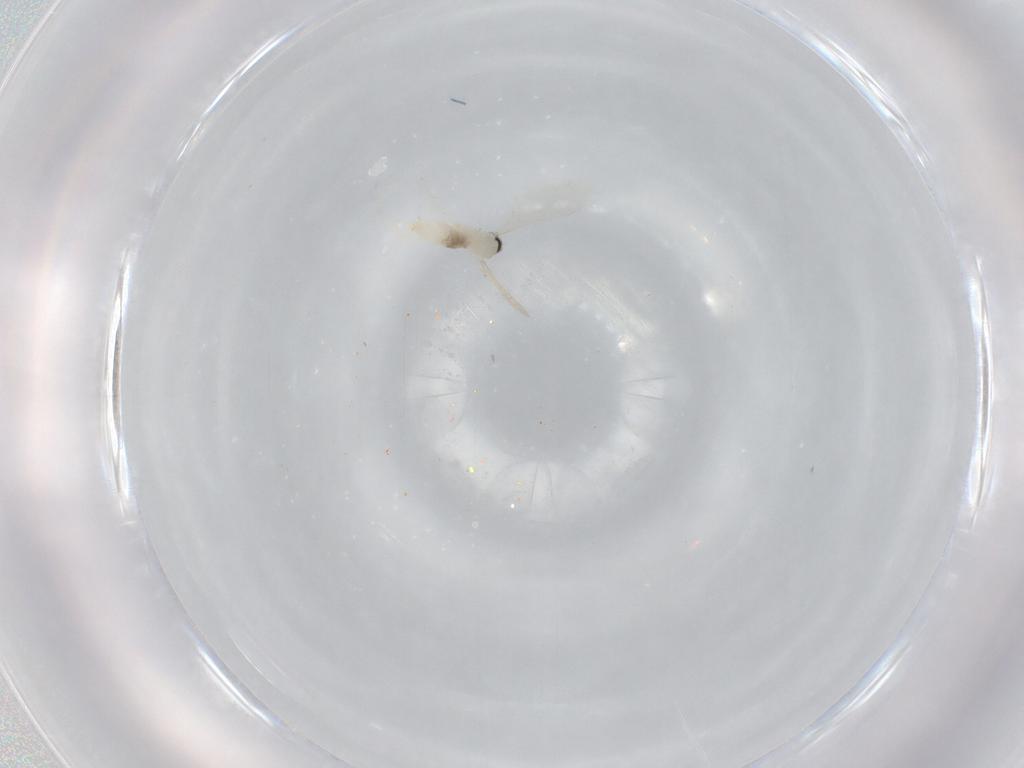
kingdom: Animalia
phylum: Arthropoda
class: Insecta
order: Diptera
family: Cecidomyiidae
